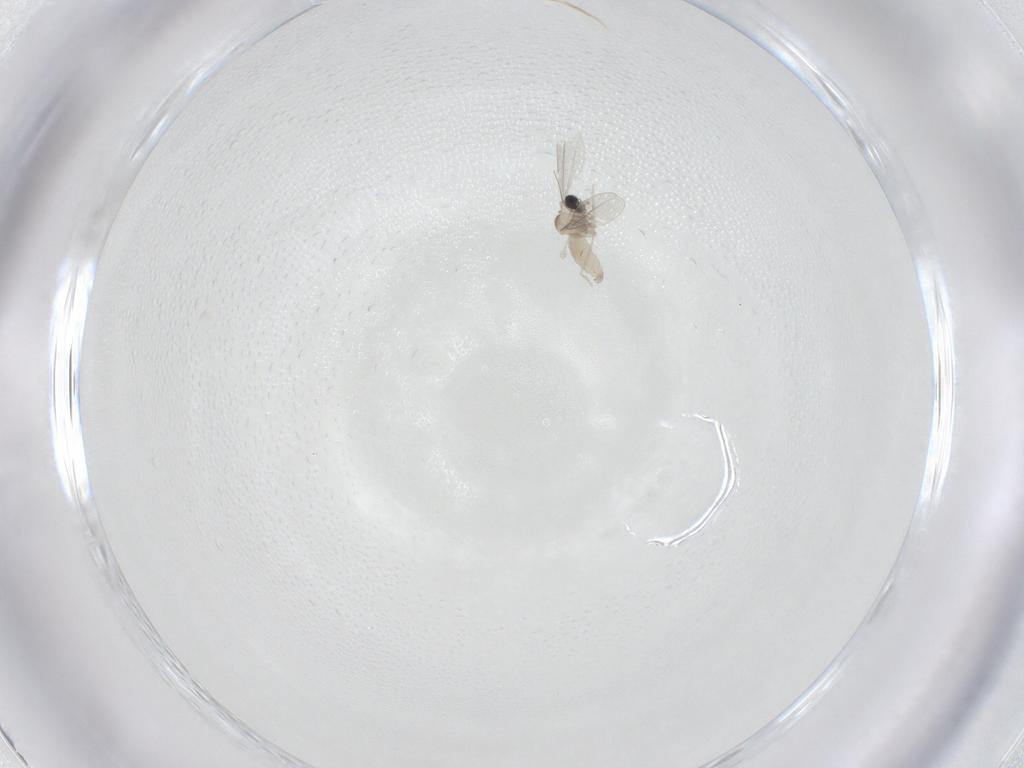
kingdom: Animalia
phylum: Arthropoda
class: Insecta
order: Diptera
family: Cecidomyiidae
